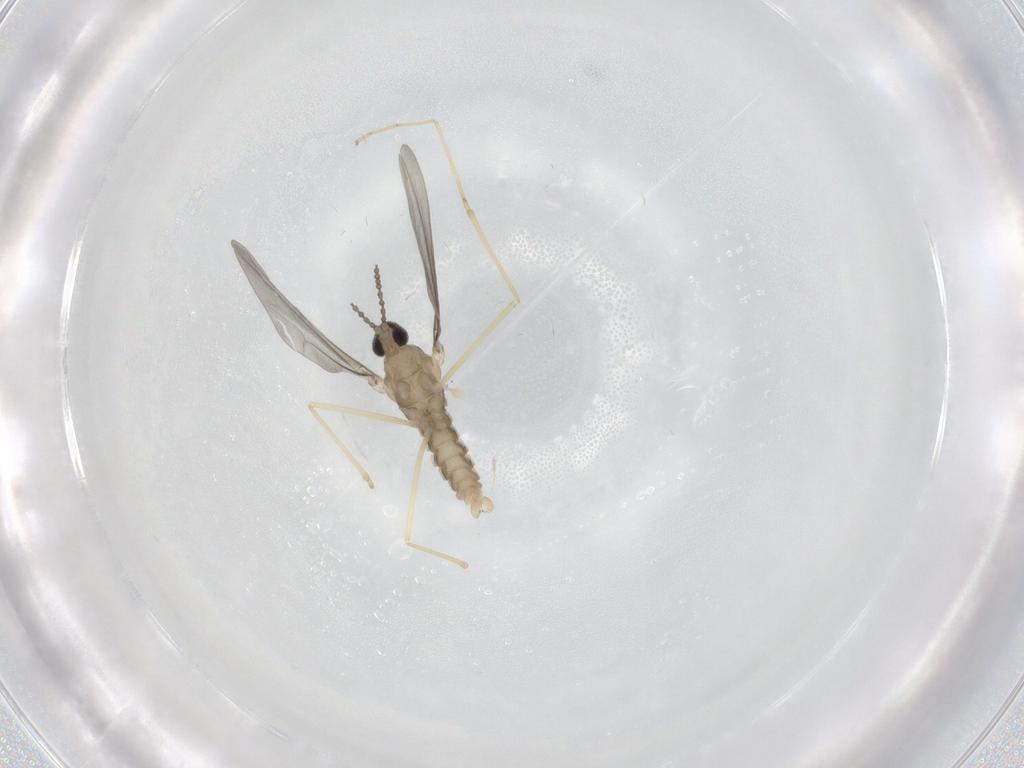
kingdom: Animalia
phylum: Arthropoda
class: Insecta
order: Diptera
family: Cecidomyiidae
